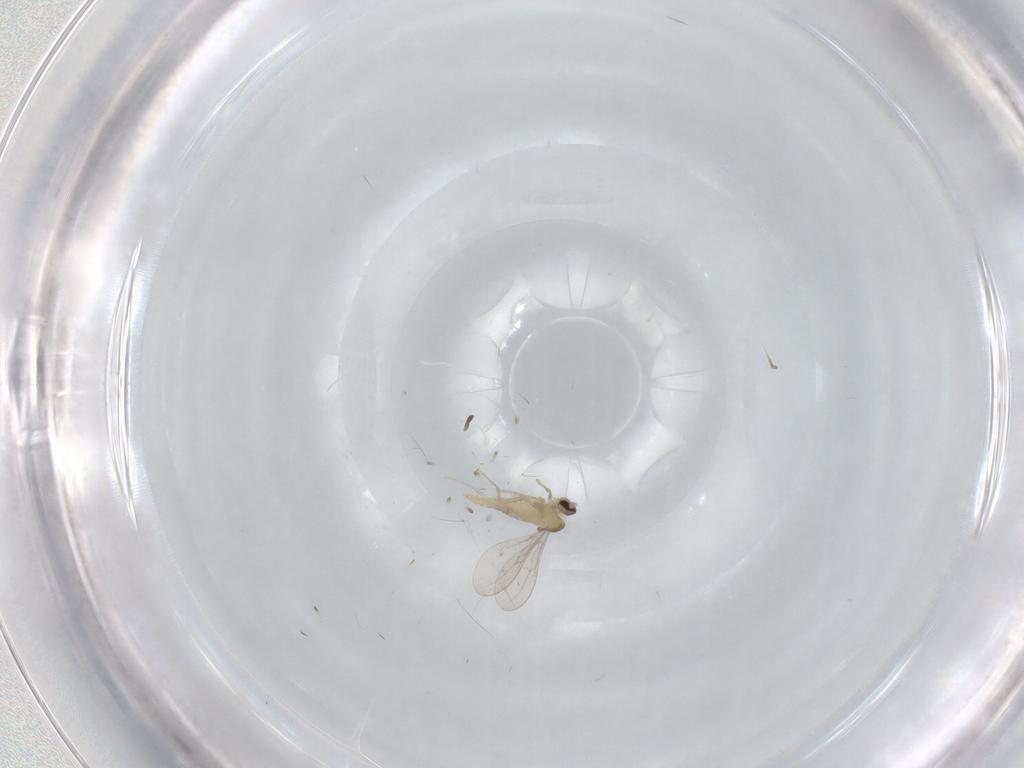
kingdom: Animalia
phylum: Arthropoda
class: Insecta
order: Diptera
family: Cecidomyiidae
